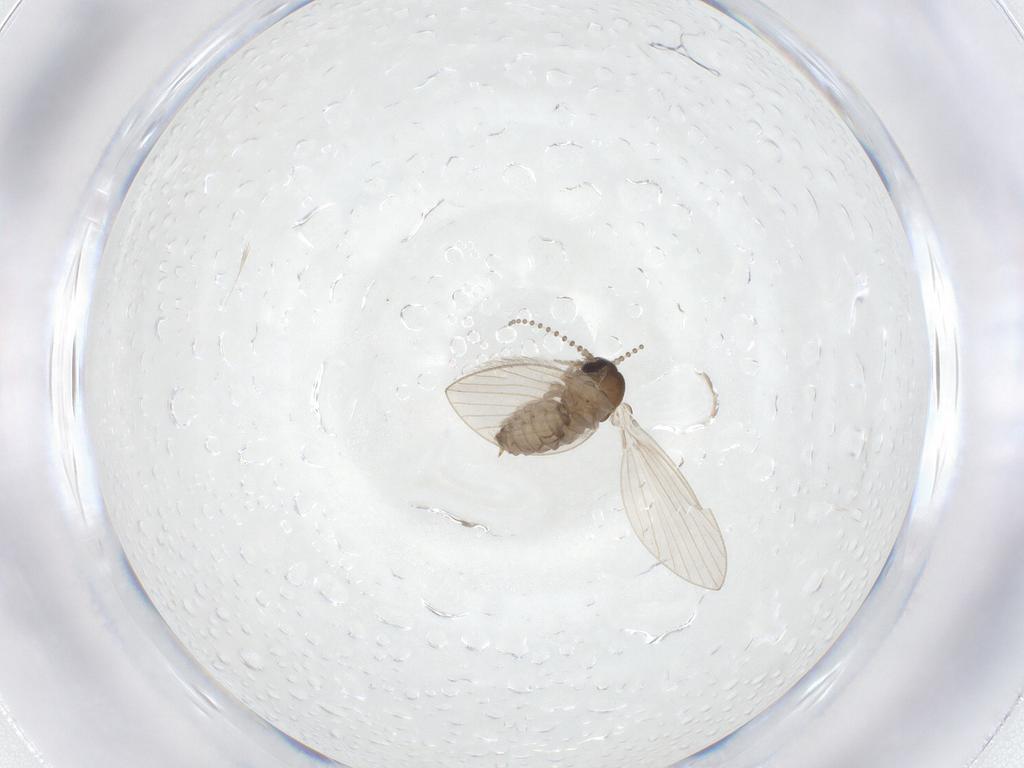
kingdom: Animalia
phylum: Arthropoda
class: Insecta
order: Diptera
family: Psychodidae
